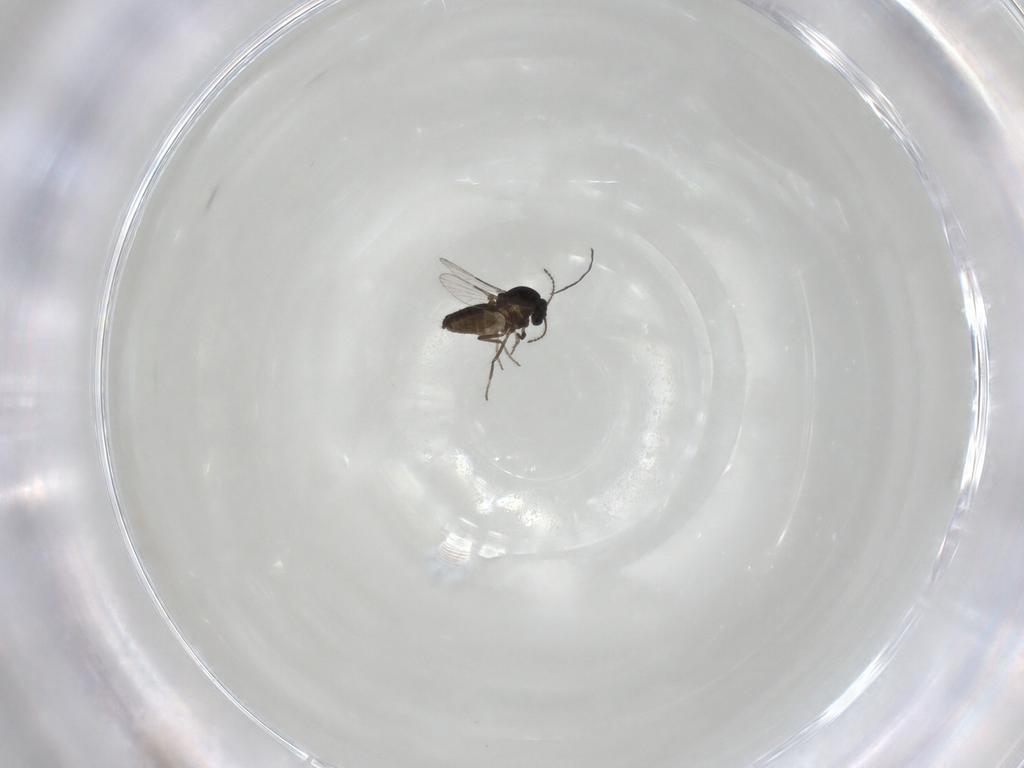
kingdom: Animalia
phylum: Arthropoda
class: Insecta
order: Diptera
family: Ceratopogonidae
